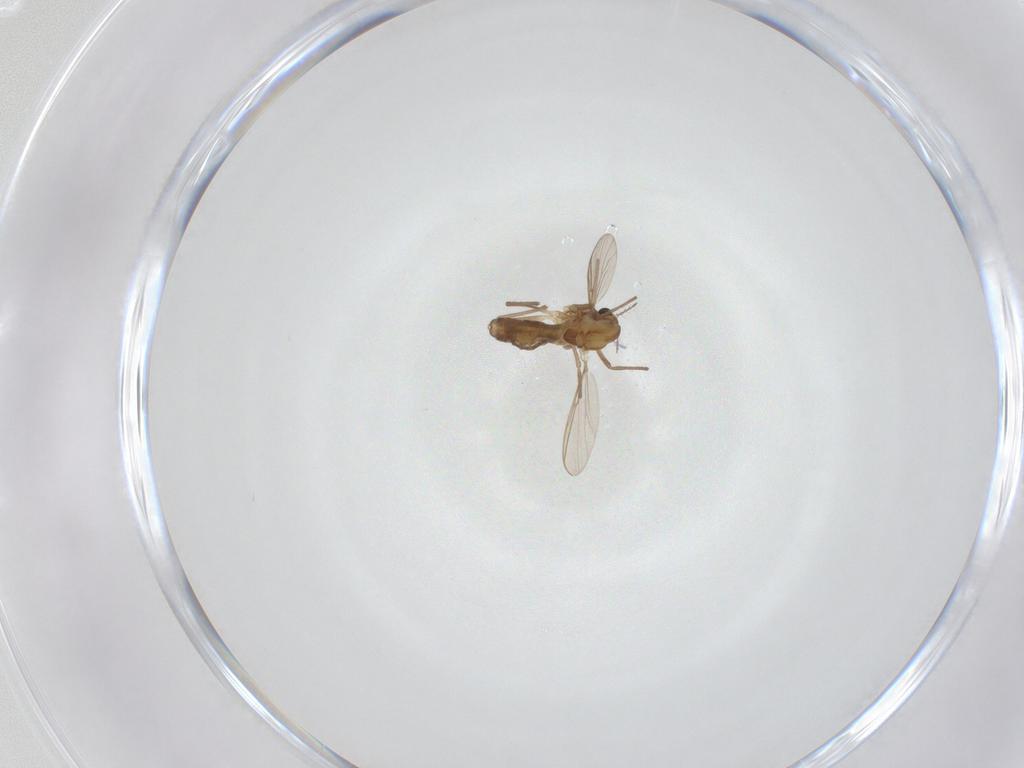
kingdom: Animalia
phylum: Arthropoda
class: Insecta
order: Diptera
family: Chironomidae
